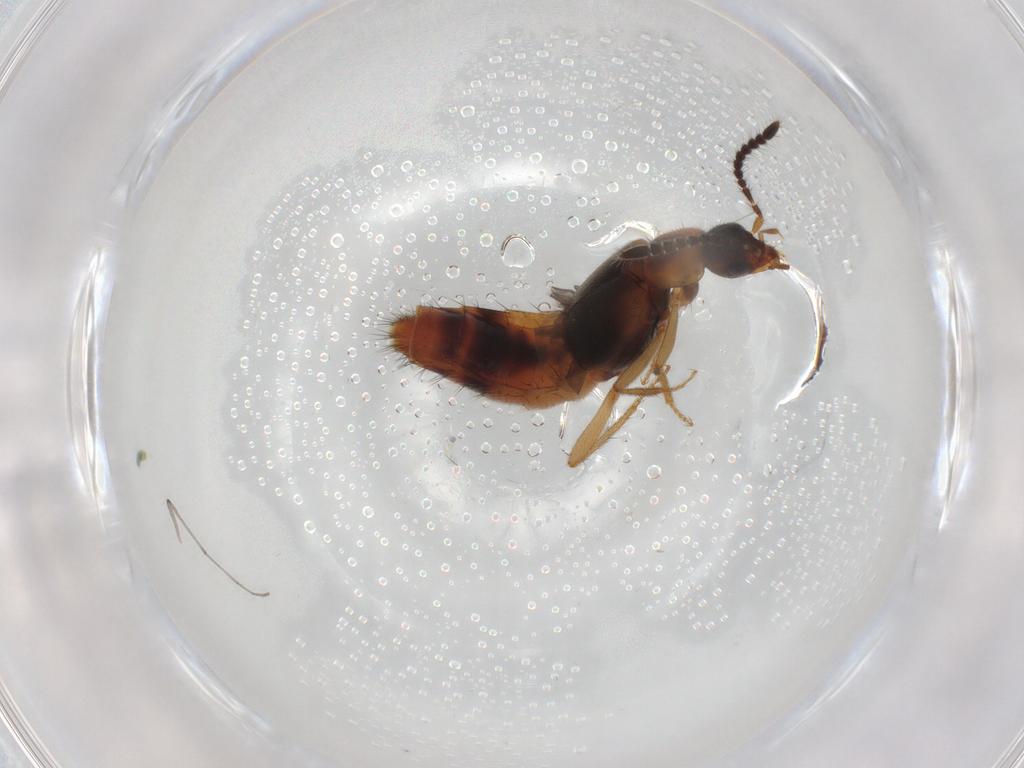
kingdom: Animalia
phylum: Arthropoda
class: Insecta
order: Coleoptera
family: Staphylinidae
